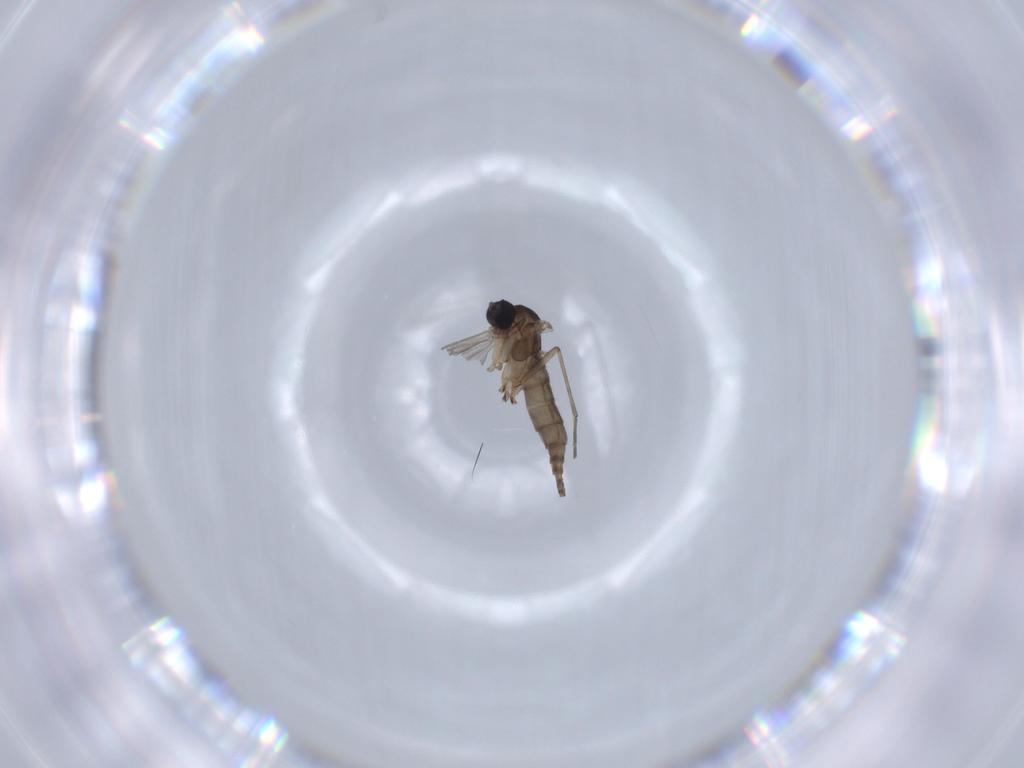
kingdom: Animalia
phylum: Arthropoda
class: Insecta
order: Diptera
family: Sciaridae
